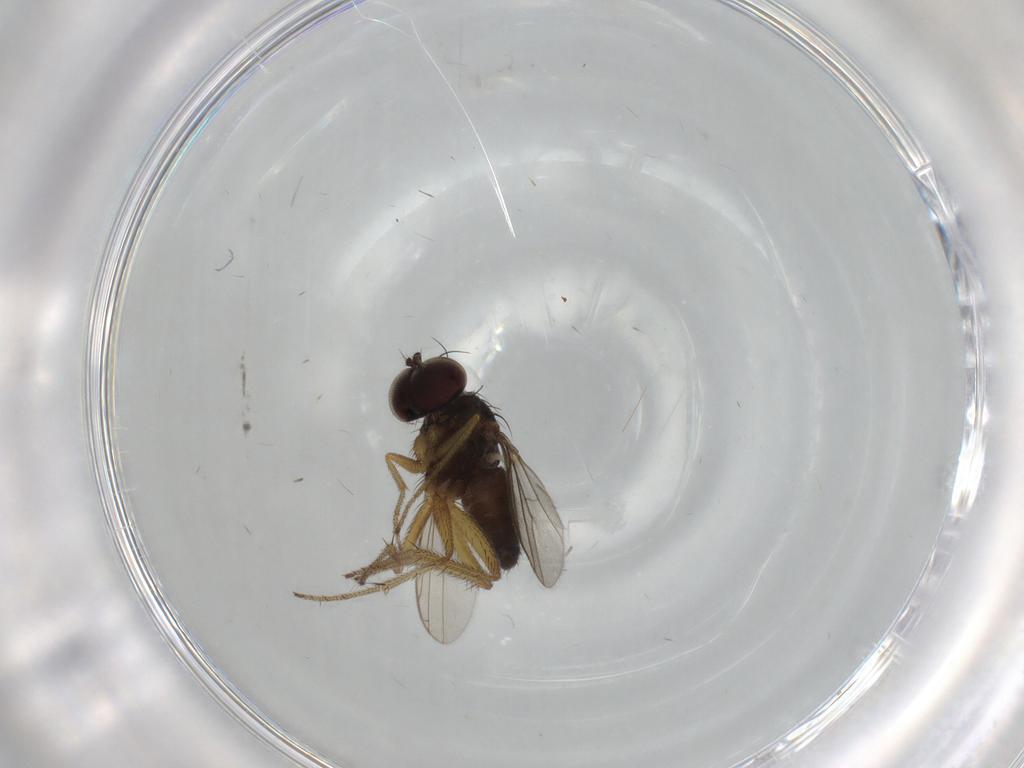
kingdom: Animalia
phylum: Arthropoda
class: Insecta
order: Diptera
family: Dolichopodidae
